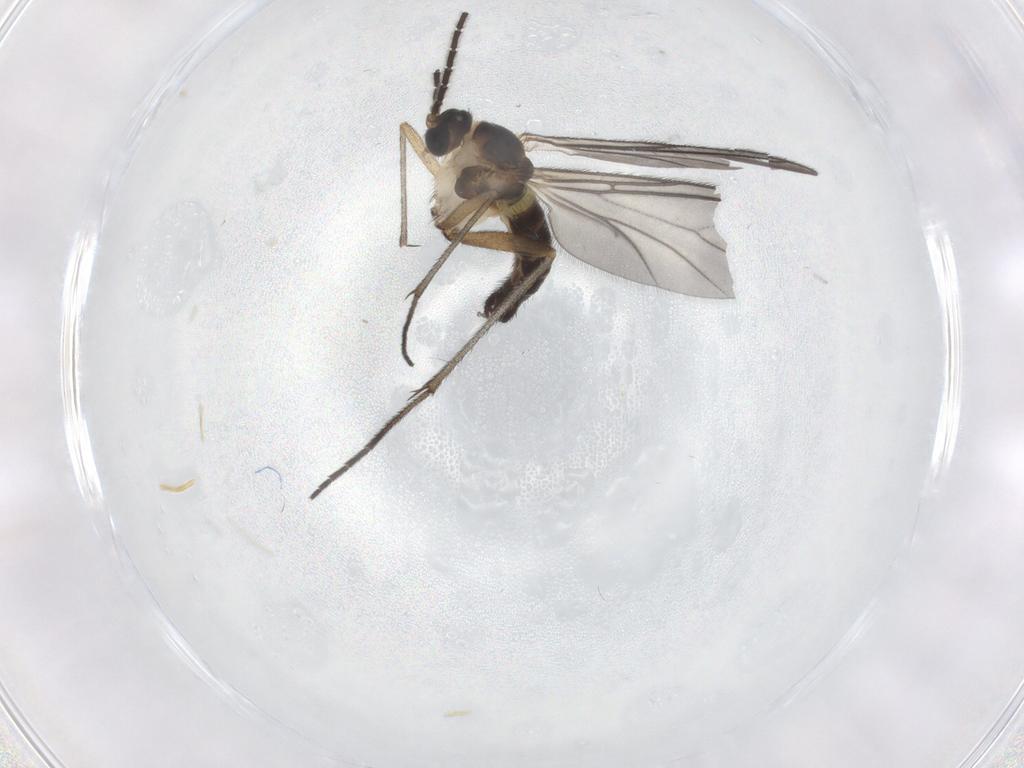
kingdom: Animalia
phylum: Arthropoda
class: Insecta
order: Diptera
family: Sciaridae
